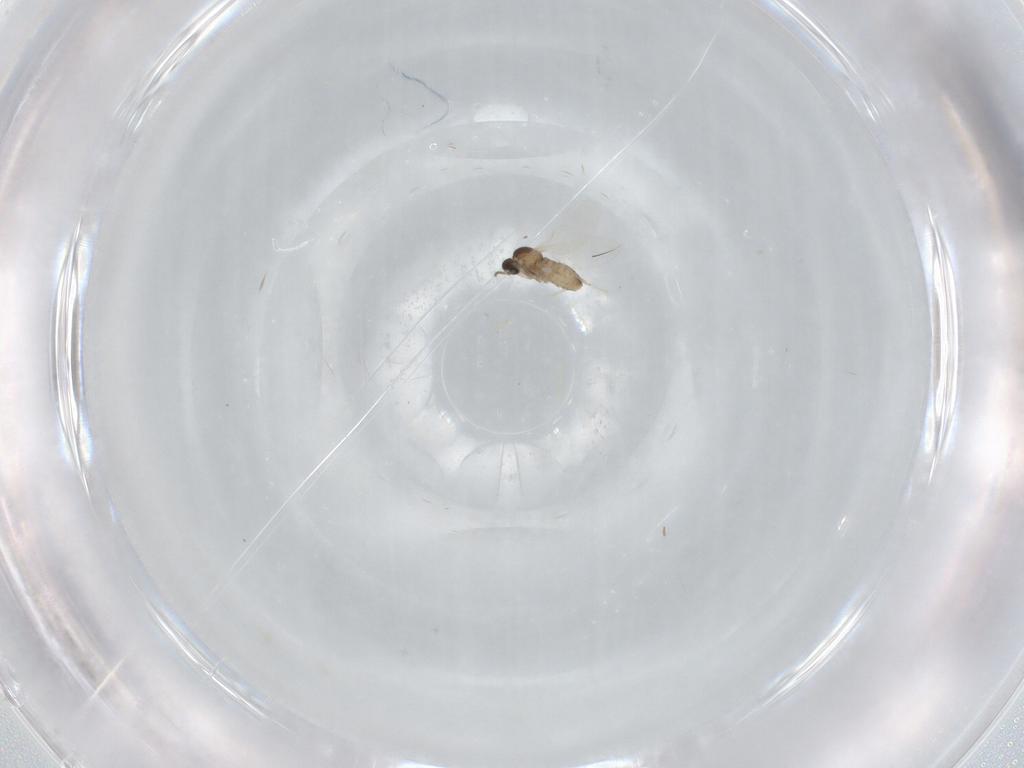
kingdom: Animalia
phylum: Arthropoda
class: Insecta
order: Diptera
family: Cecidomyiidae
